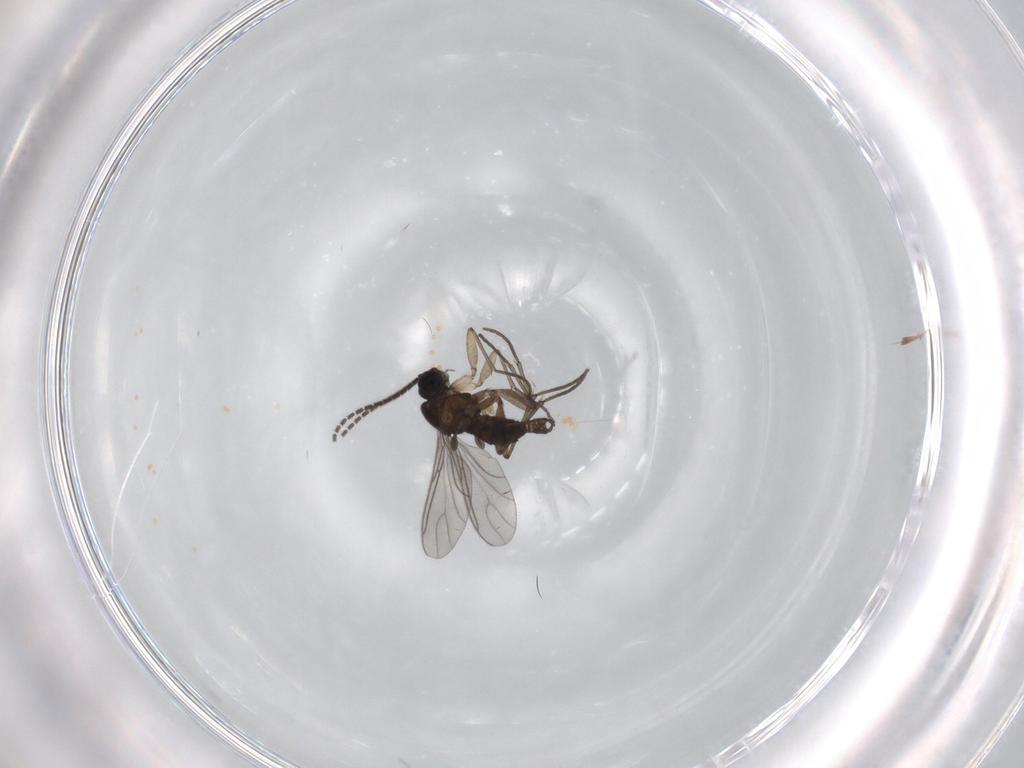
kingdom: Animalia
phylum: Arthropoda
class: Insecta
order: Diptera
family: Sciaridae
